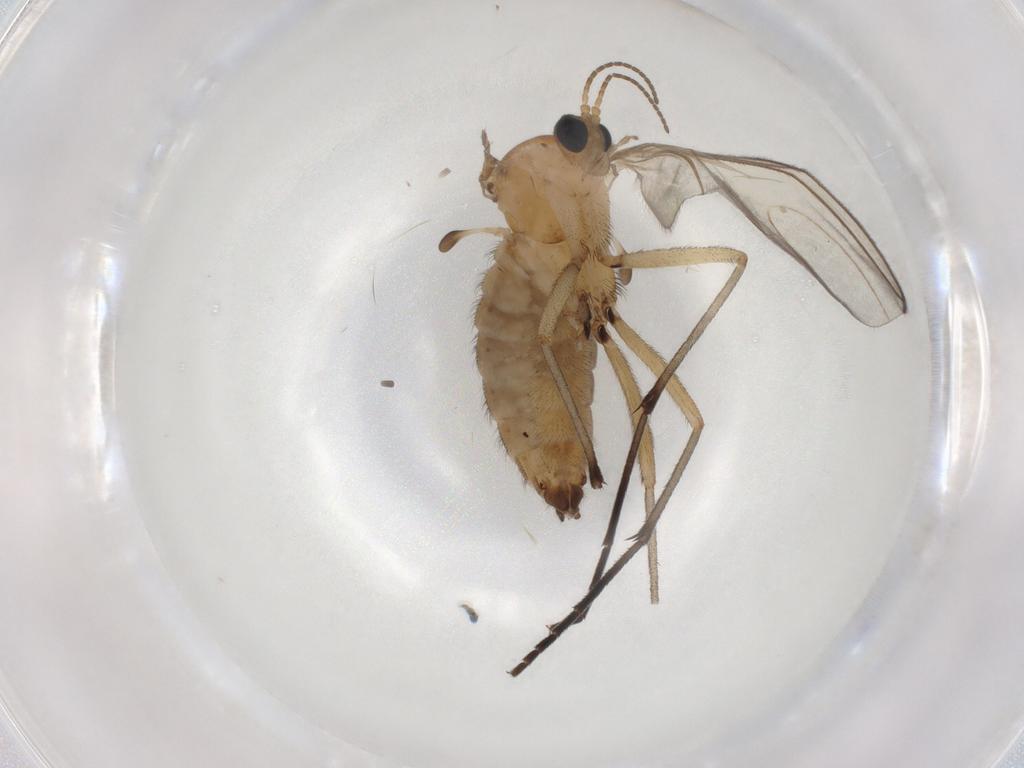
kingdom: Animalia
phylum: Arthropoda
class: Insecta
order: Diptera
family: Sciaridae
